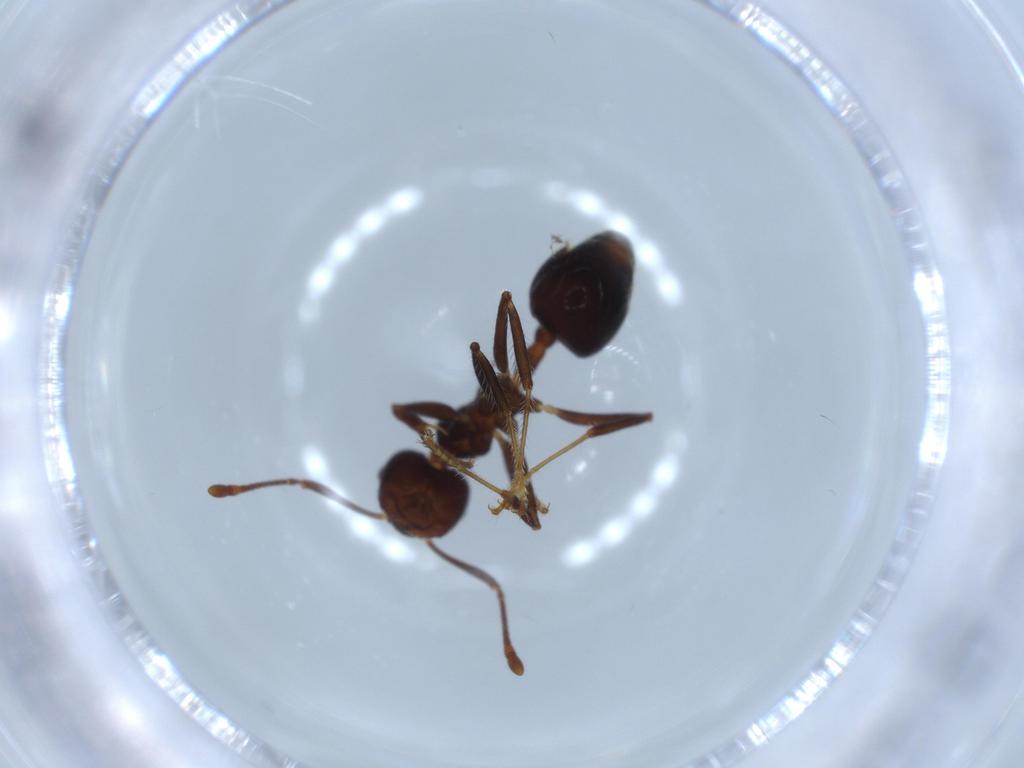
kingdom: Animalia
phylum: Arthropoda
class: Insecta
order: Hymenoptera
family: Formicidae
